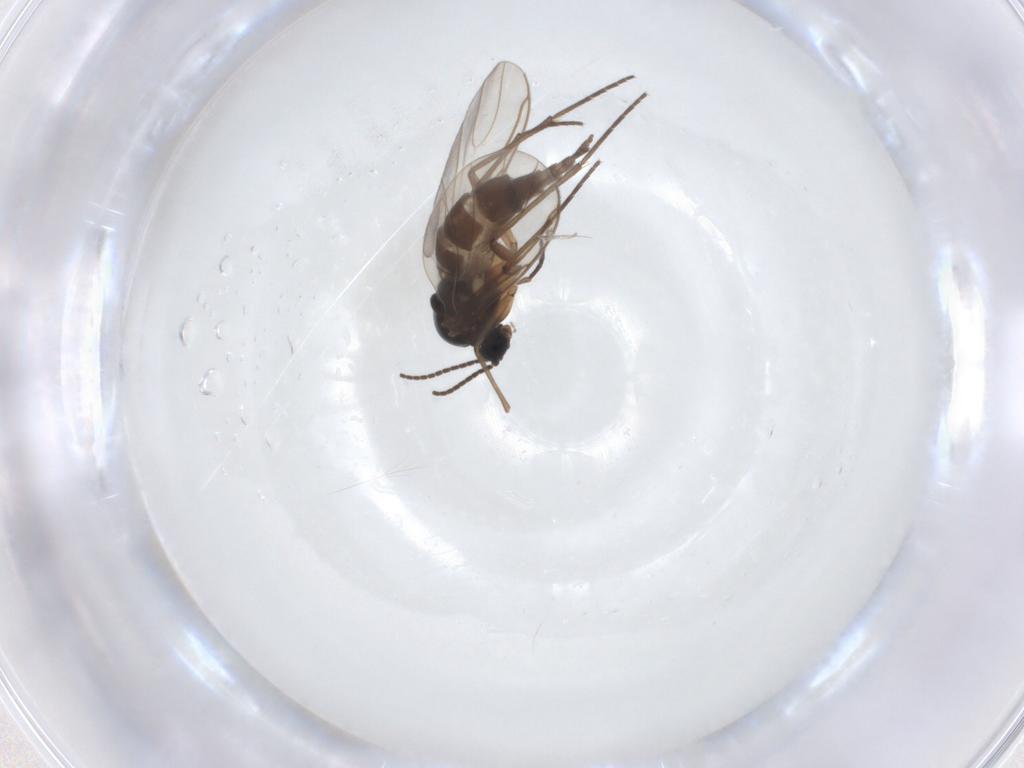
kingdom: Animalia
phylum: Arthropoda
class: Insecta
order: Diptera
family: Sciaridae
